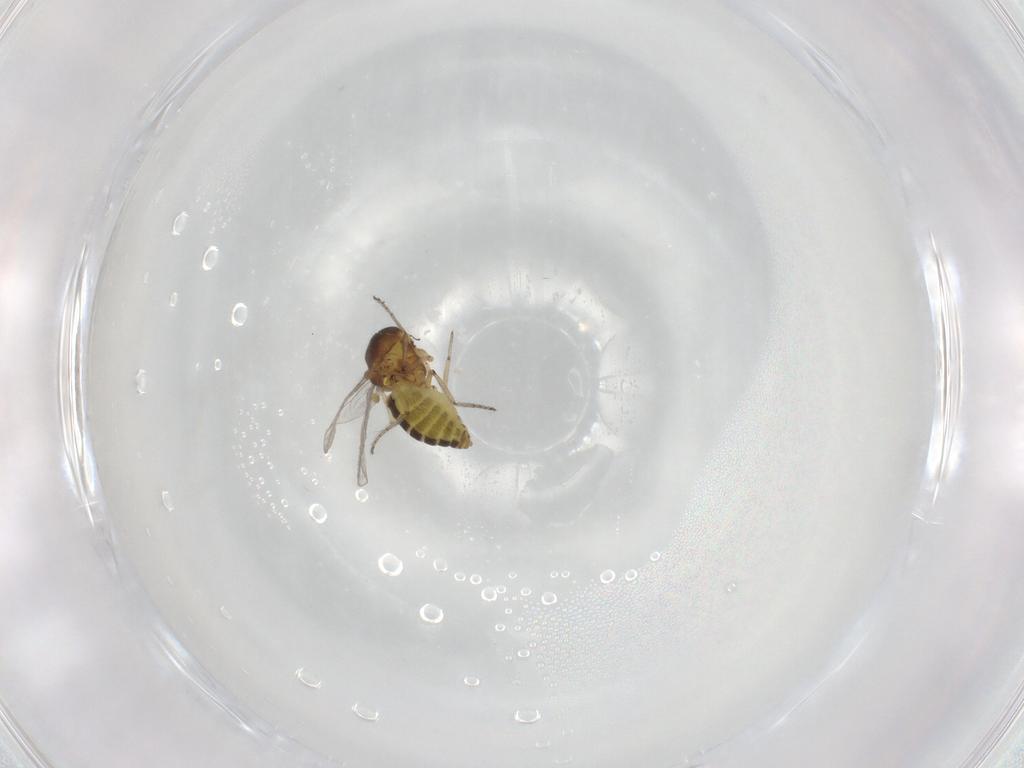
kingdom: Animalia
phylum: Arthropoda
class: Insecta
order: Diptera
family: Ceratopogonidae
